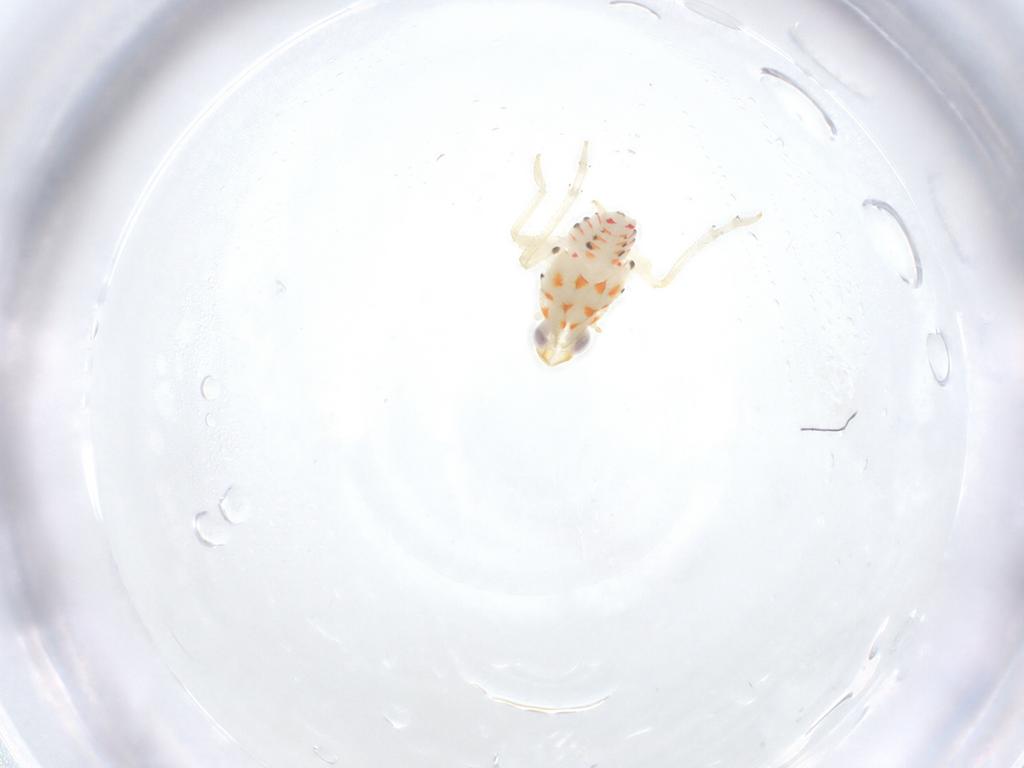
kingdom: Animalia
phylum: Arthropoda
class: Insecta
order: Hemiptera
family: Tropiduchidae
